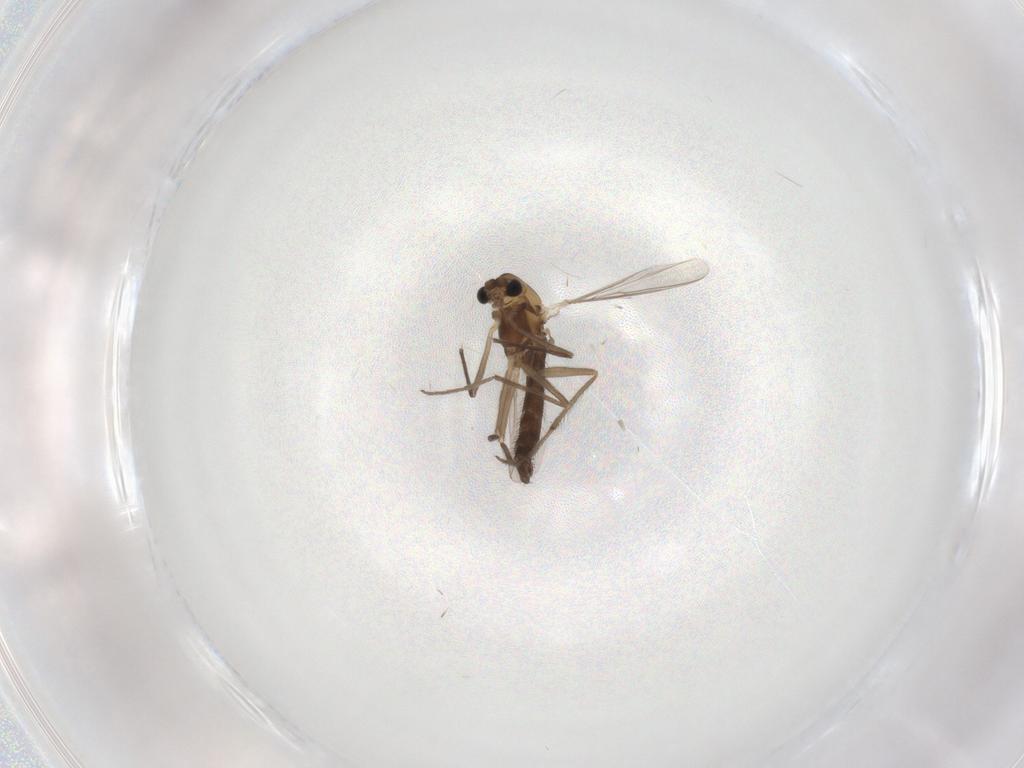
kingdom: Animalia
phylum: Arthropoda
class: Insecta
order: Diptera
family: Chironomidae
